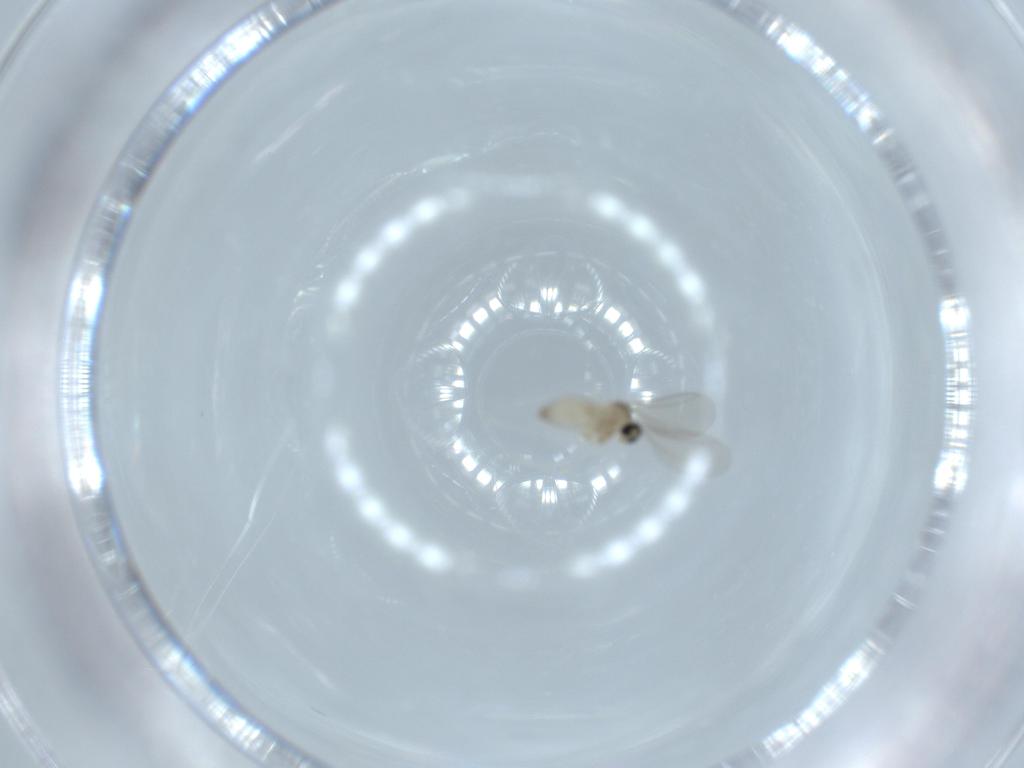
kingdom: Animalia
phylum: Arthropoda
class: Insecta
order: Diptera
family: Cecidomyiidae
